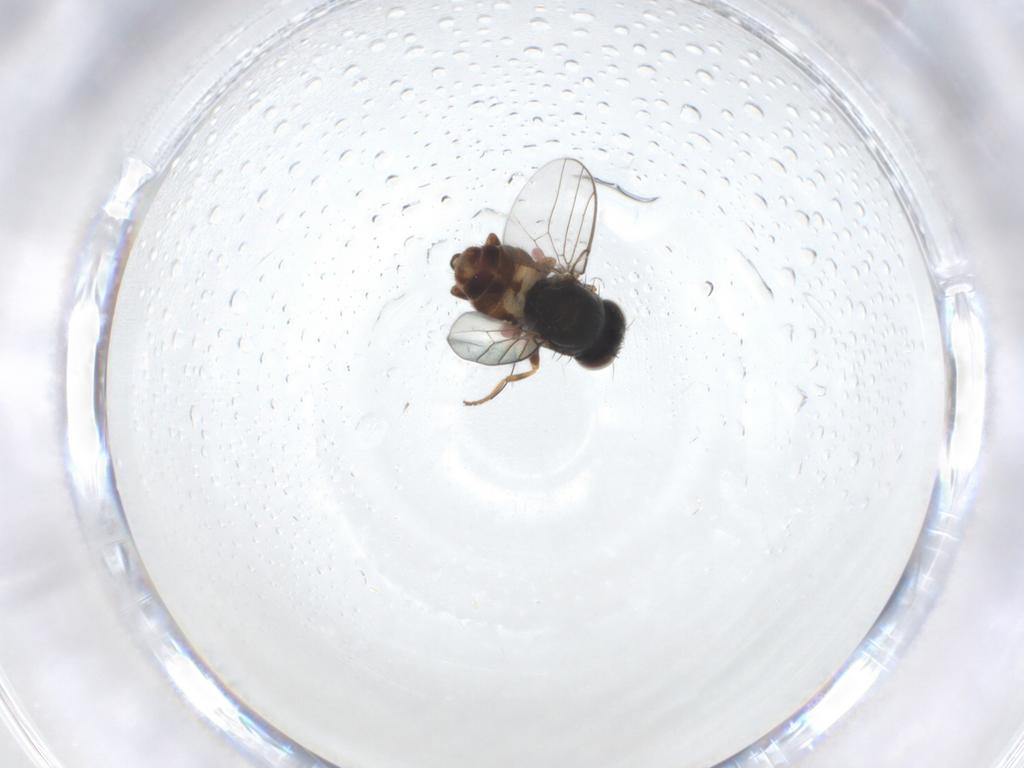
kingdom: Animalia
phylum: Arthropoda
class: Insecta
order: Diptera
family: Chloropidae
